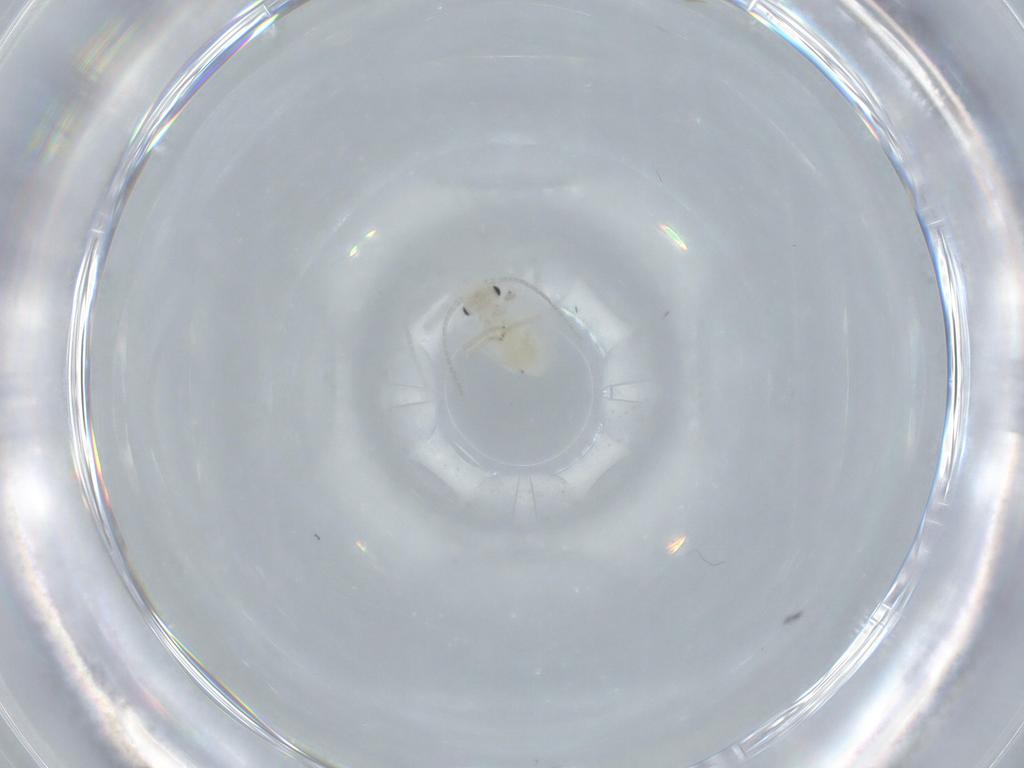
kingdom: Animalia
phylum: Arthropoda
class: Insecta
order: Psocodea
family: Caeciliusidae
